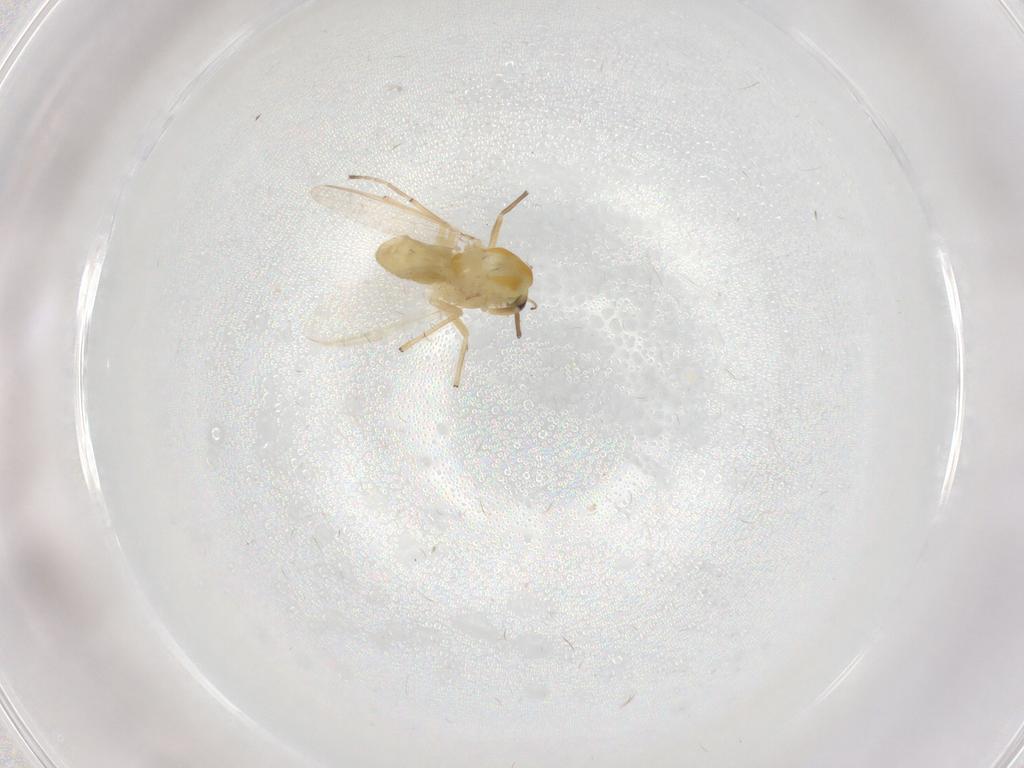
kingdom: Animalia
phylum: Arthropoda
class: Insecta
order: Diptera
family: Chironomidae
